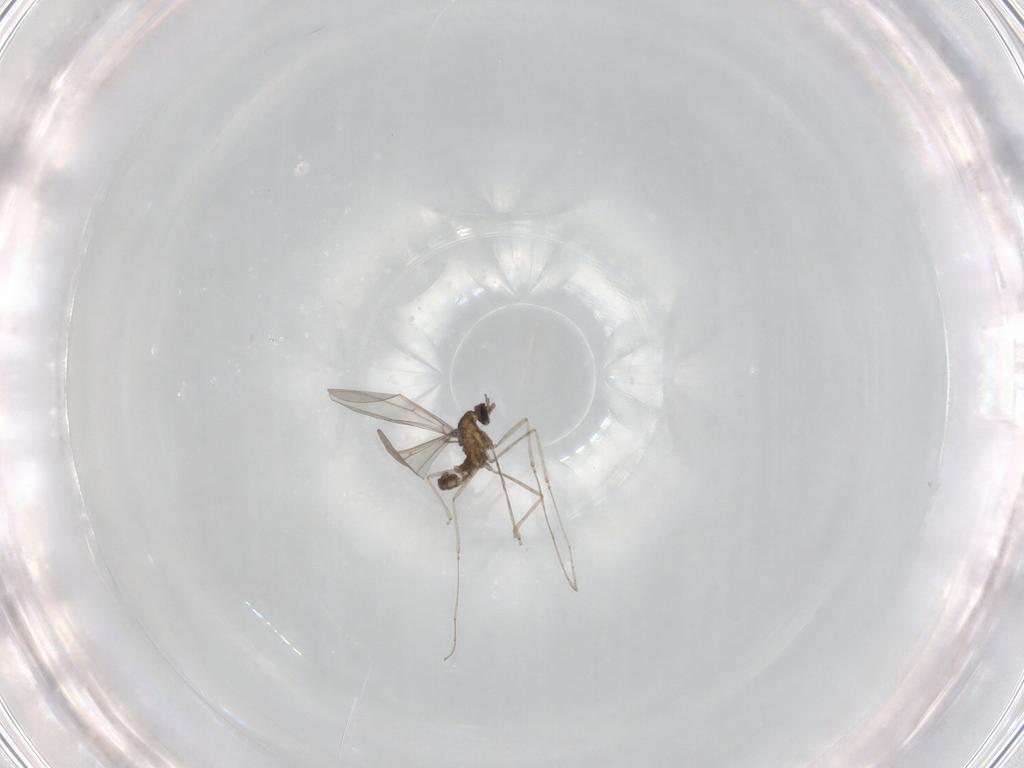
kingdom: Animalia
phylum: Arthropoda
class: Insecta
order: Diptera
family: Cecidomyiidae
